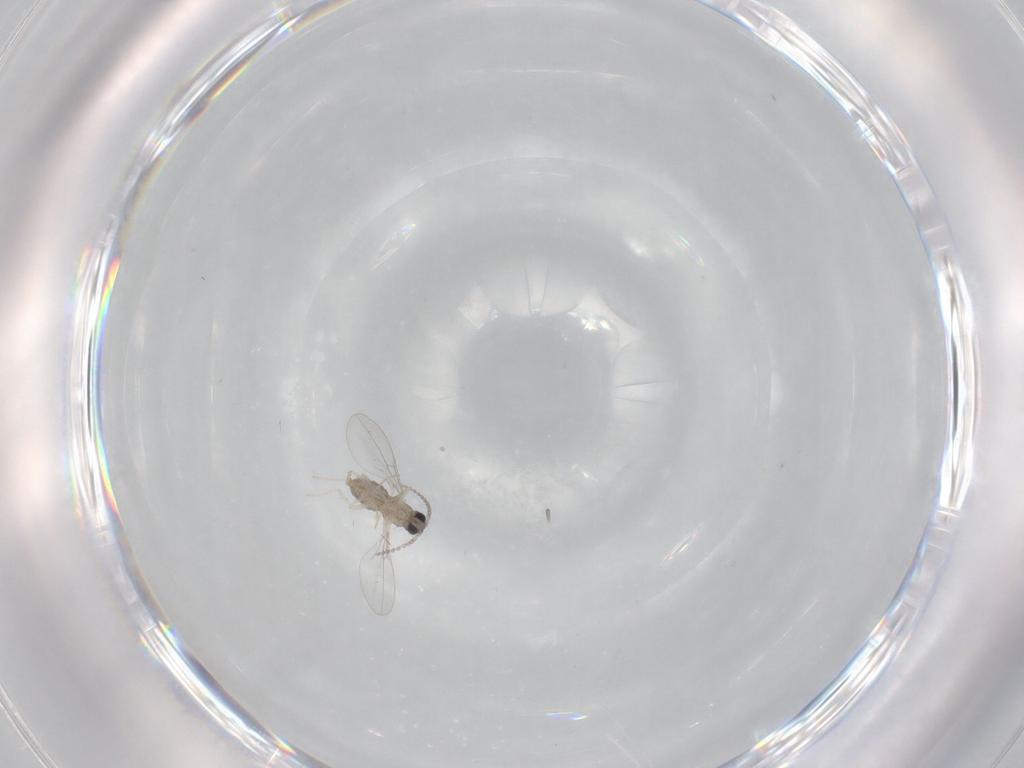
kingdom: Animalia
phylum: Arthropoda
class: Insecta
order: Diptera
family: Cecidomyiidae
